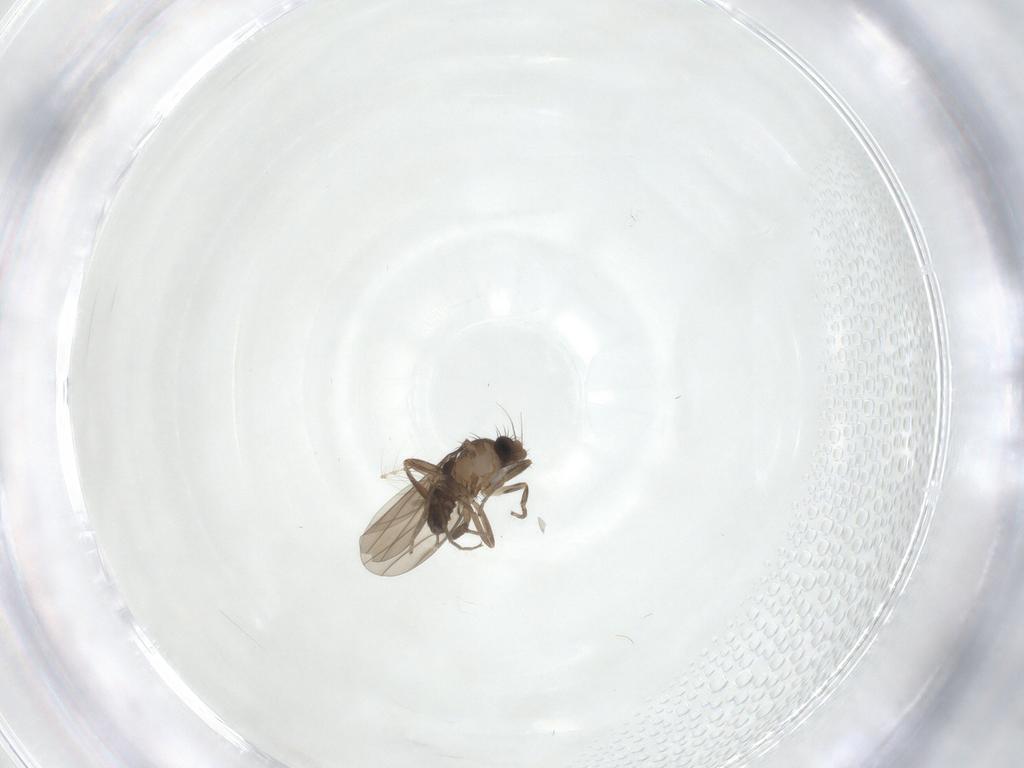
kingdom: Animalia
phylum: Arthropoda
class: Insecta
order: Diptera
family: Chironomidae
